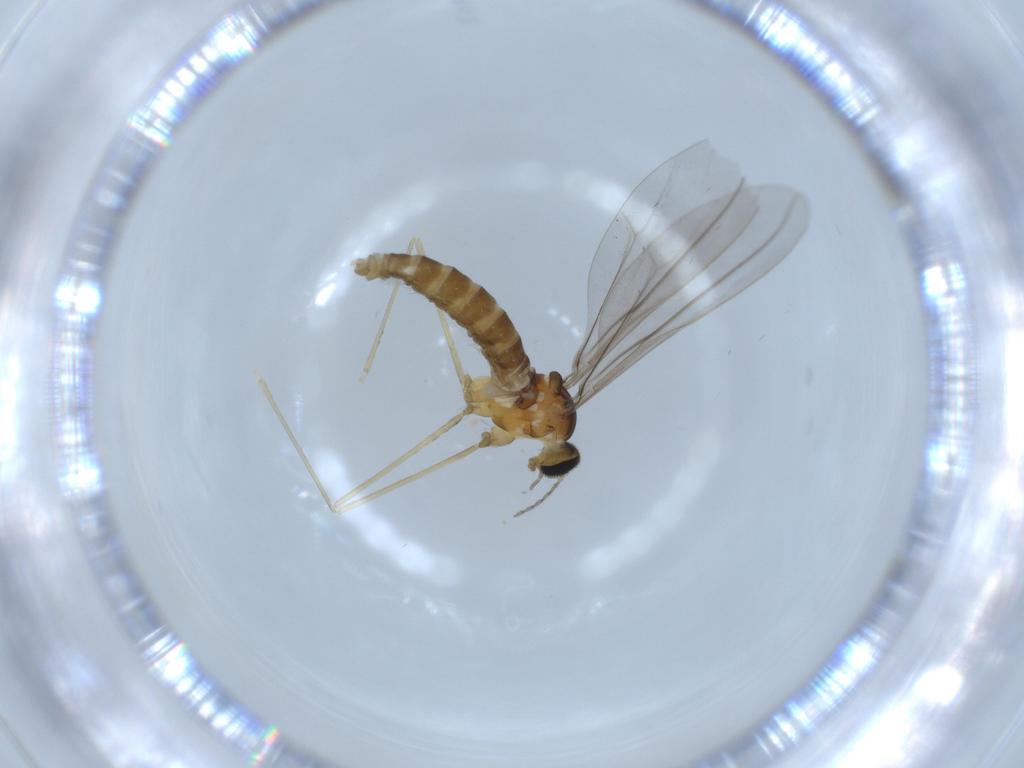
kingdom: Animalia
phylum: Arthropoda
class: Insecta
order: Diptera
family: Cecidomyiidae
